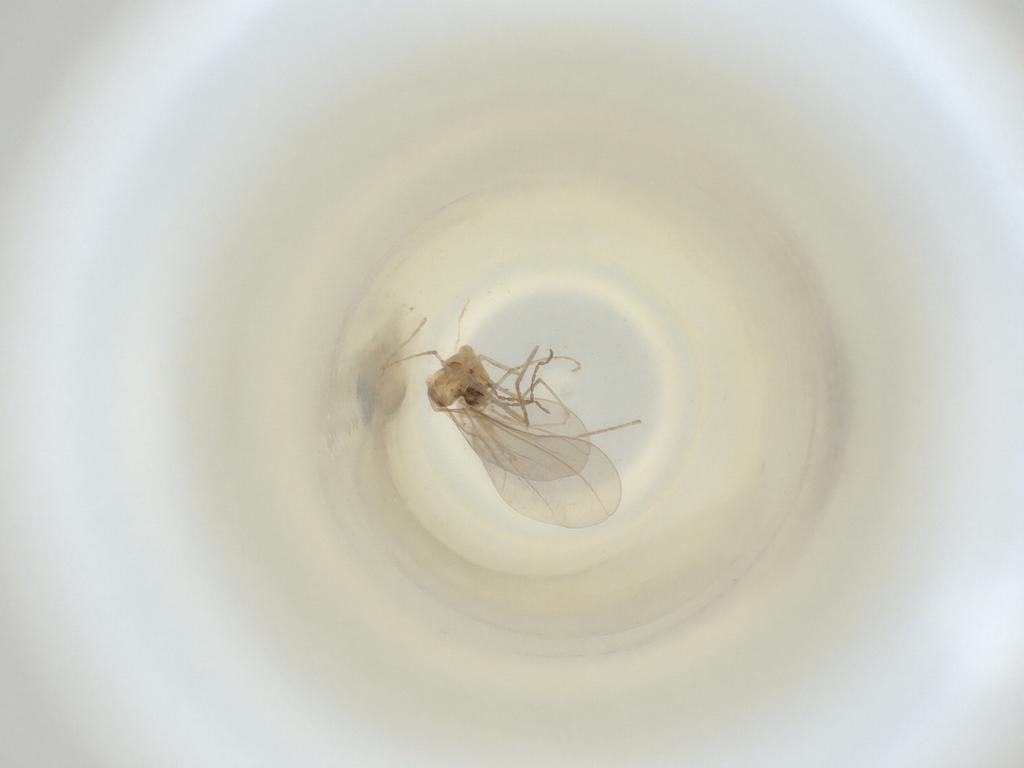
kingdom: Animalia
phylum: Arthropoda
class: Insecta
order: Diptera
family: Cecidomyiidae
